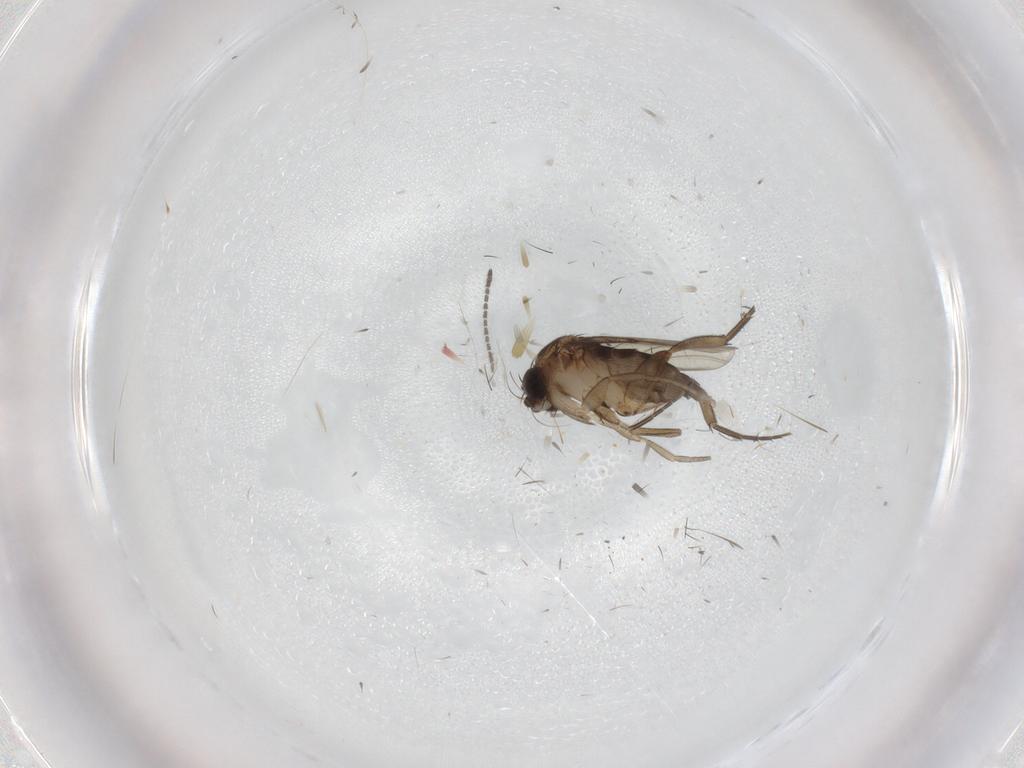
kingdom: Animalia
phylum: Arthropoda
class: Insecta
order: Diptera
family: Phoridae
